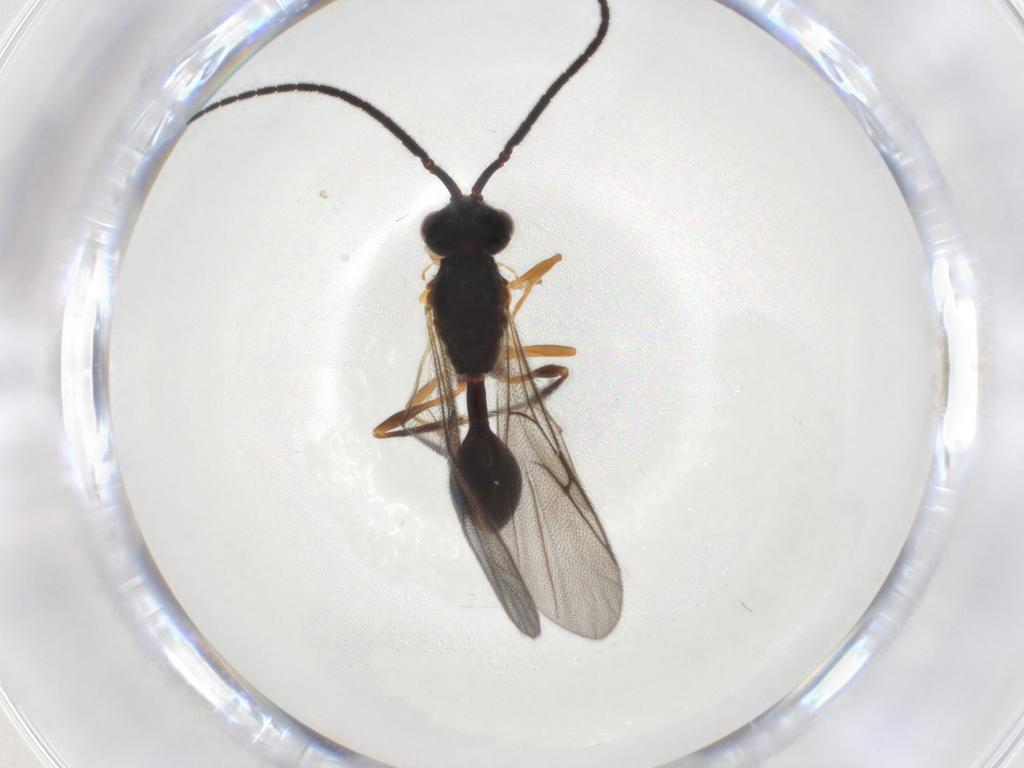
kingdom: Animalia
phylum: Arthropoda
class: Insecta
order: Hymenoptera
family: Diapriidae
